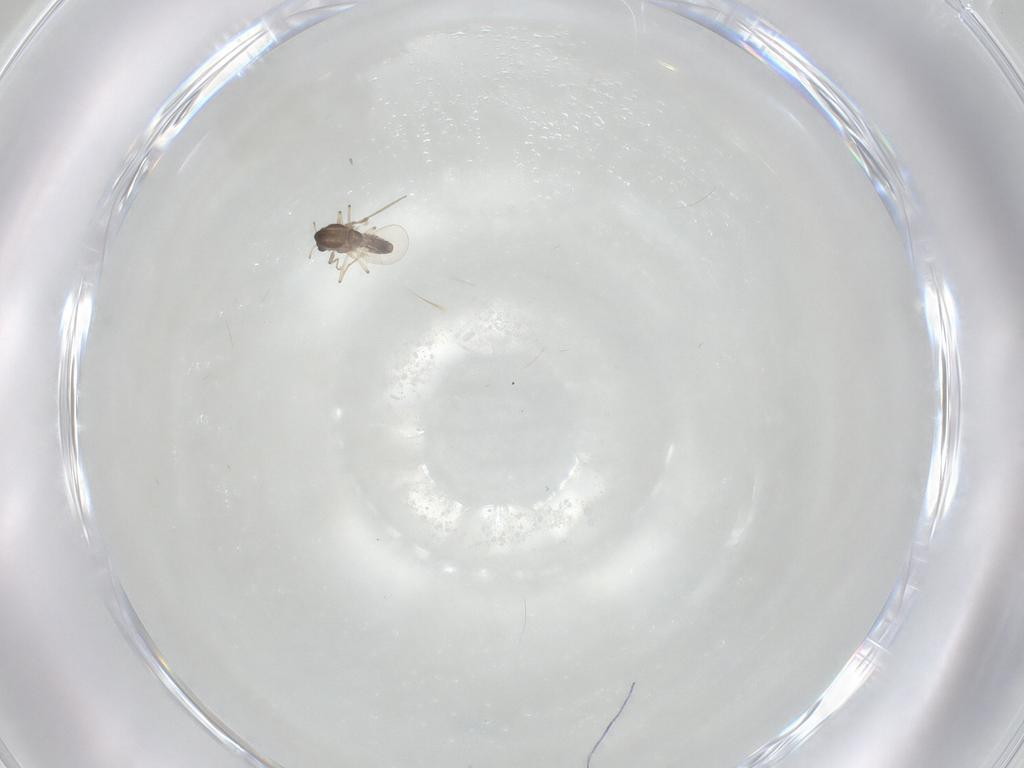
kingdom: Animalia
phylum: Arthropoda
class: Insecta
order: Diptera
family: Chironomidae
